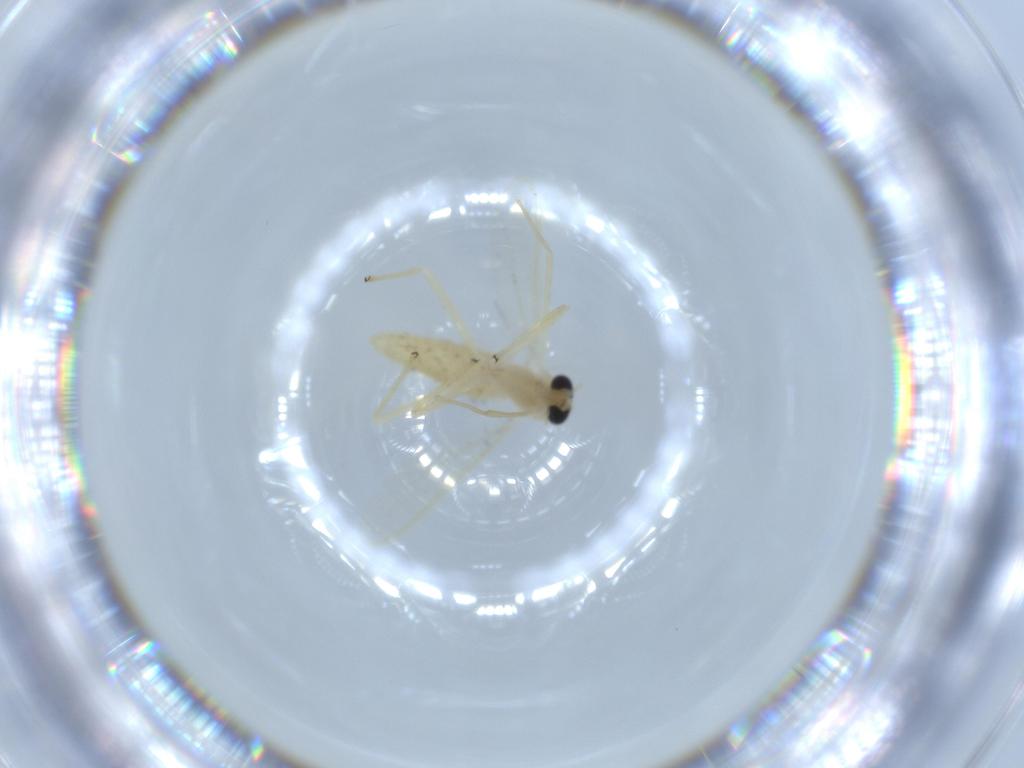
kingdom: Animalia
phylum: Arthropoda
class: Insecta
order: Diptera
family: Chironomidae
